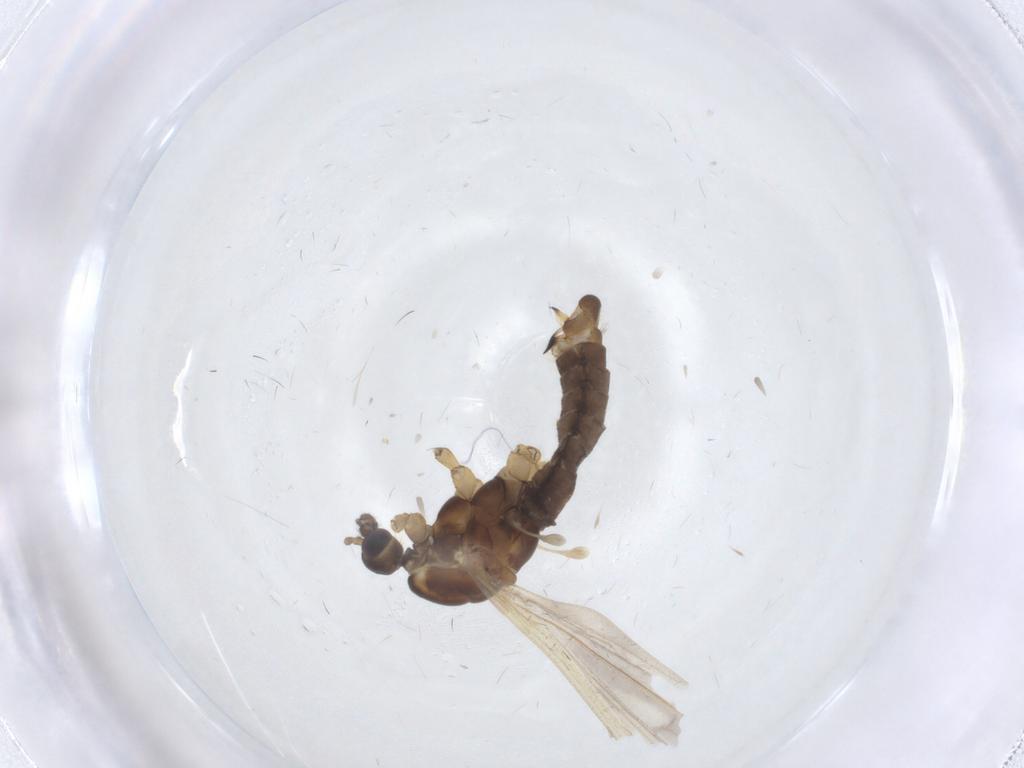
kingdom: Animalia
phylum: Arthropoda
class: Insecta
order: Diptera
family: Limoniidae
